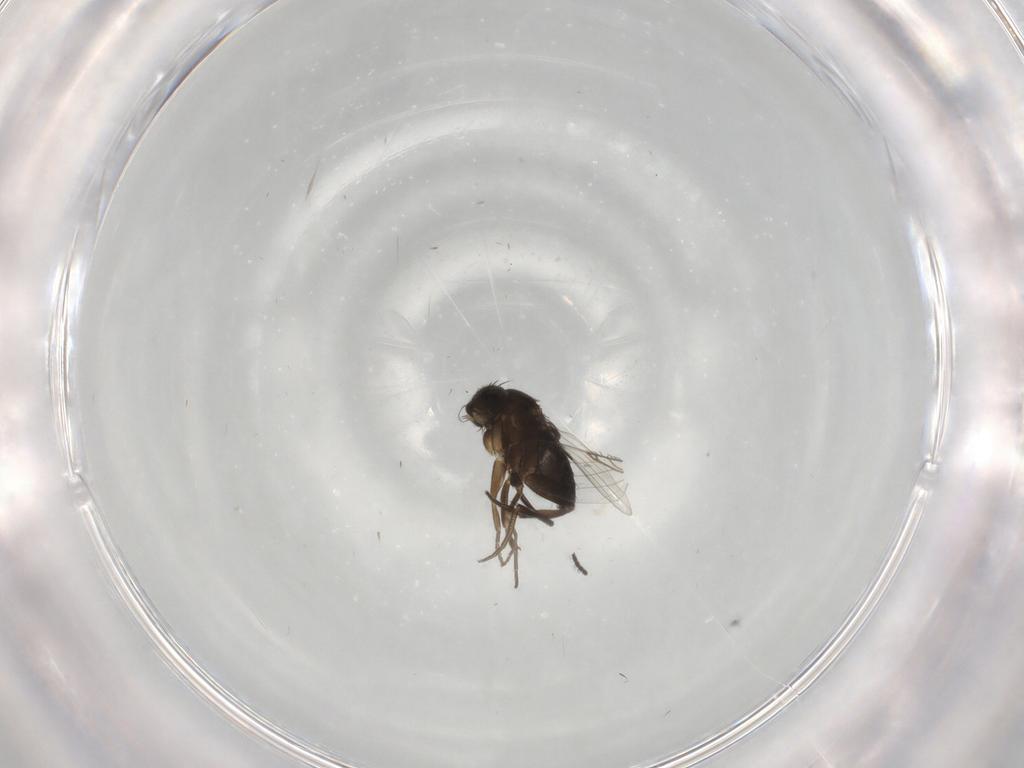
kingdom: Animalia
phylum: Arthropoda
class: Insecta
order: Diptera
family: Phoridae
